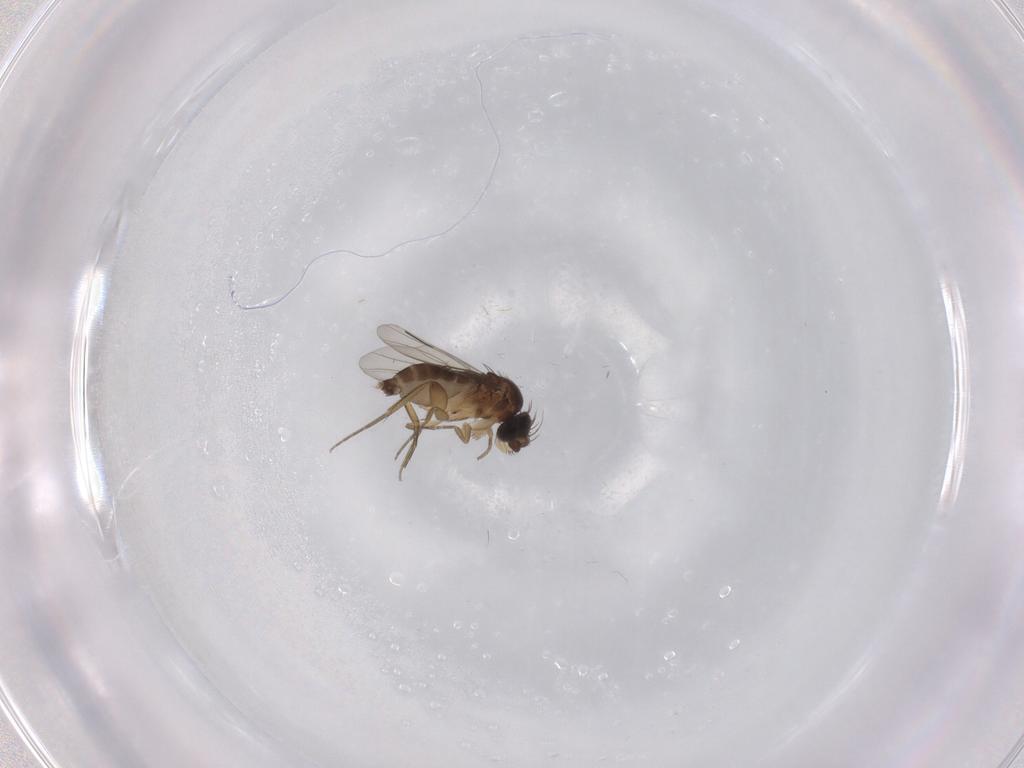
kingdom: Animalia
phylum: Arthropoda
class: Insecta
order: Diptera
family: Phoridae
